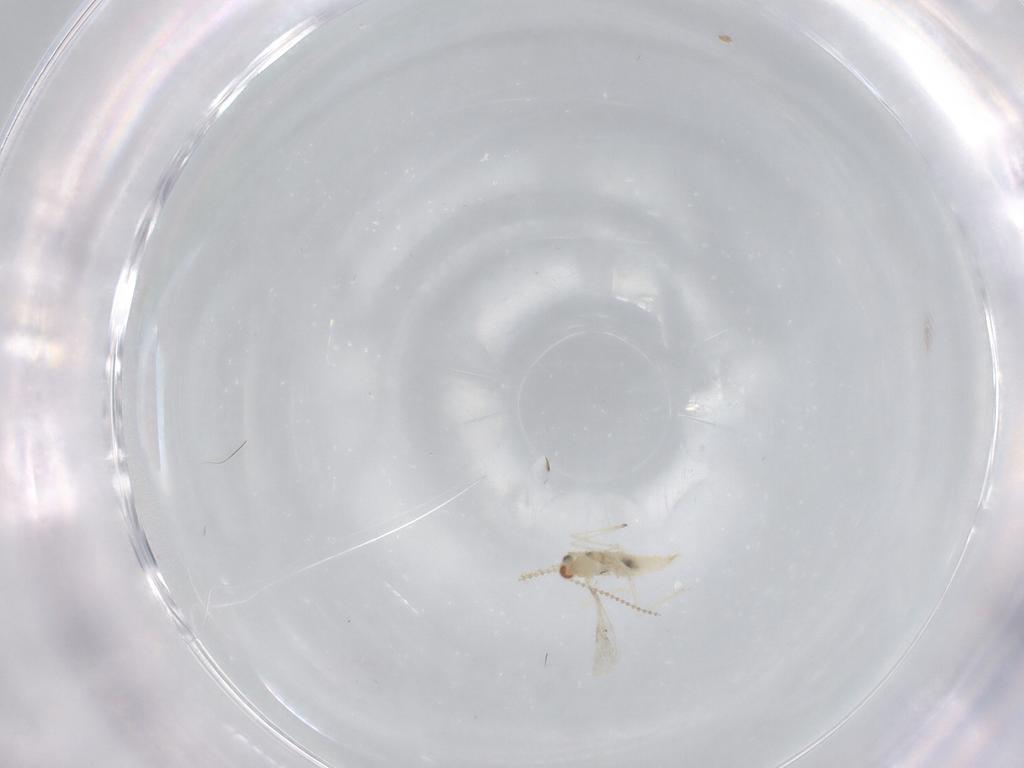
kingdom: Animalia
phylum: Arthropoda
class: Insecta
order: Diptera
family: Cecidomyiidae
